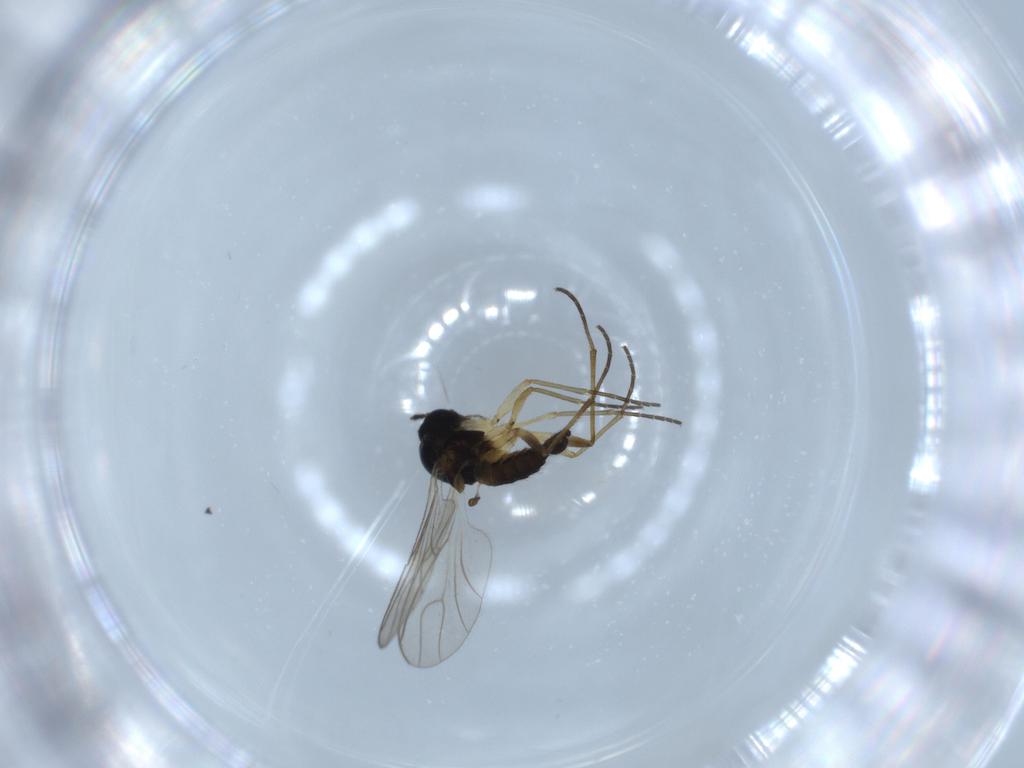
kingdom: Animalia
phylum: Arthropoda
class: Insecta
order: Diptera
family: Sciaridae
